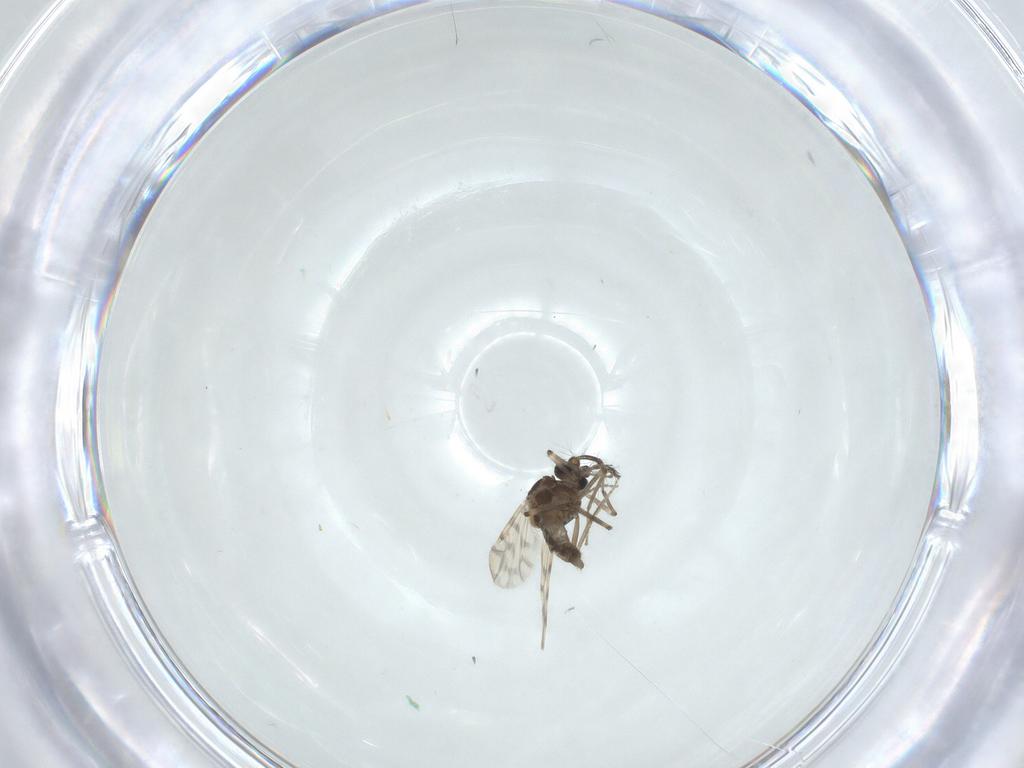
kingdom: Animalia
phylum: Arthropoda
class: Insecta
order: Diptera
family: Ceratopogonidae
